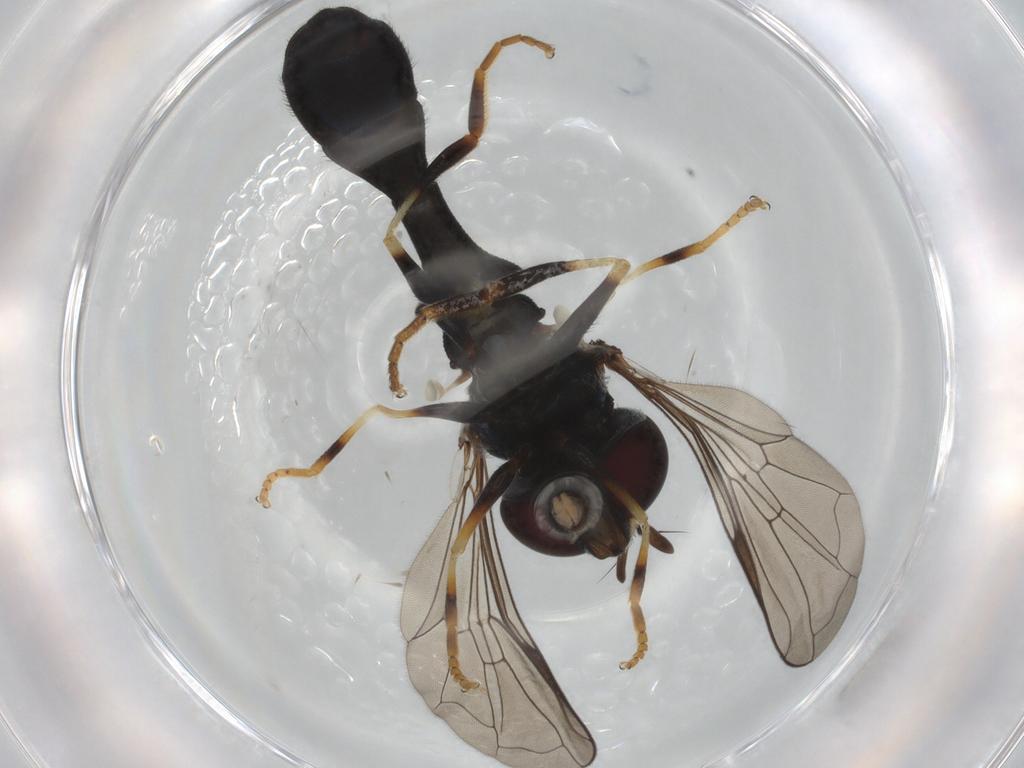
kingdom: Animalia
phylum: Arthropoda
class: Insecta
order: Diptera
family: Syrphidae
